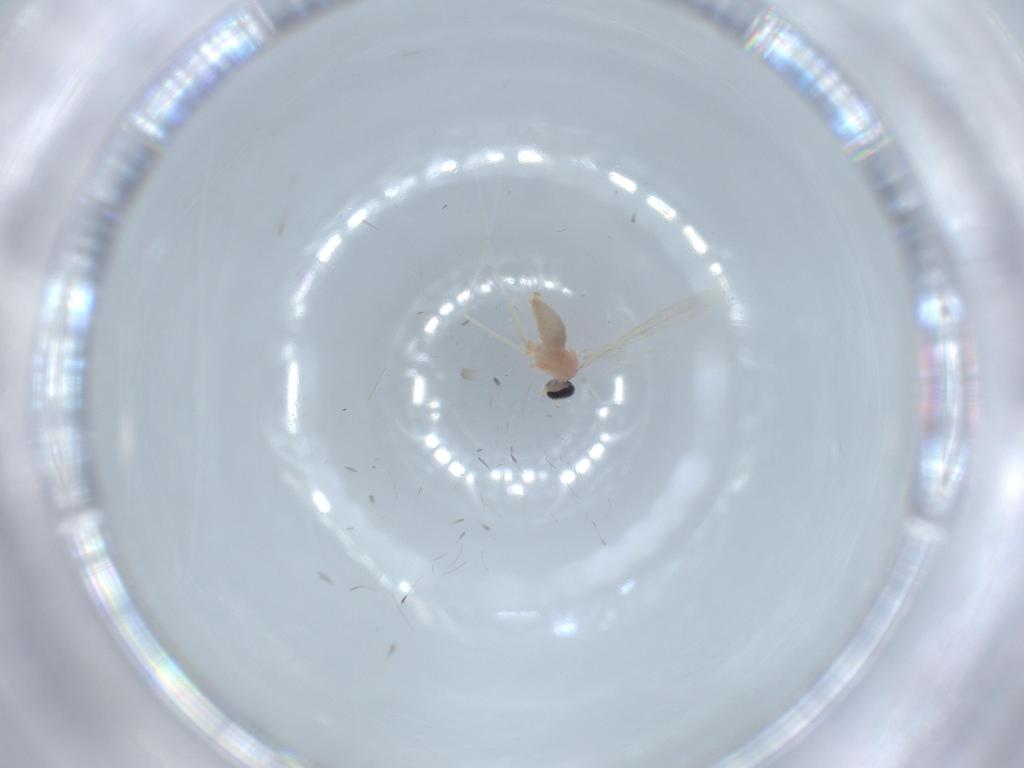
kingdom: Animalia
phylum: Arthropoda
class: Insecta
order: Diptera
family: Cecidomyiidae
